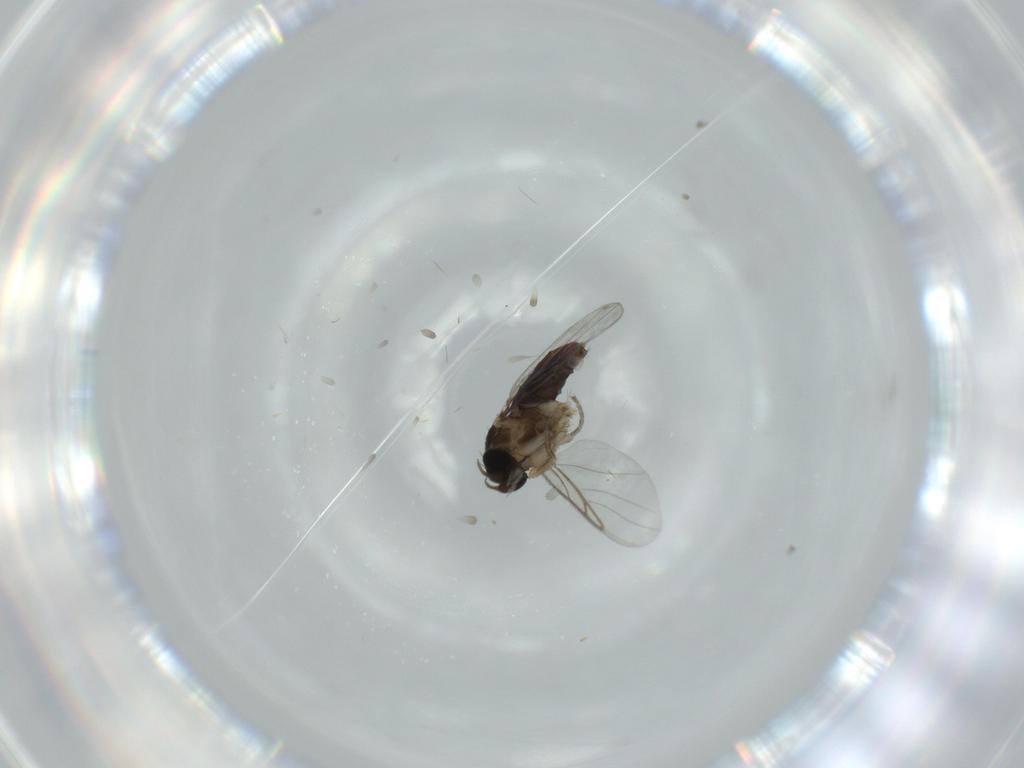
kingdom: Animalia
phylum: Arthropoda
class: Insecta
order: Diptera
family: Phoridae
